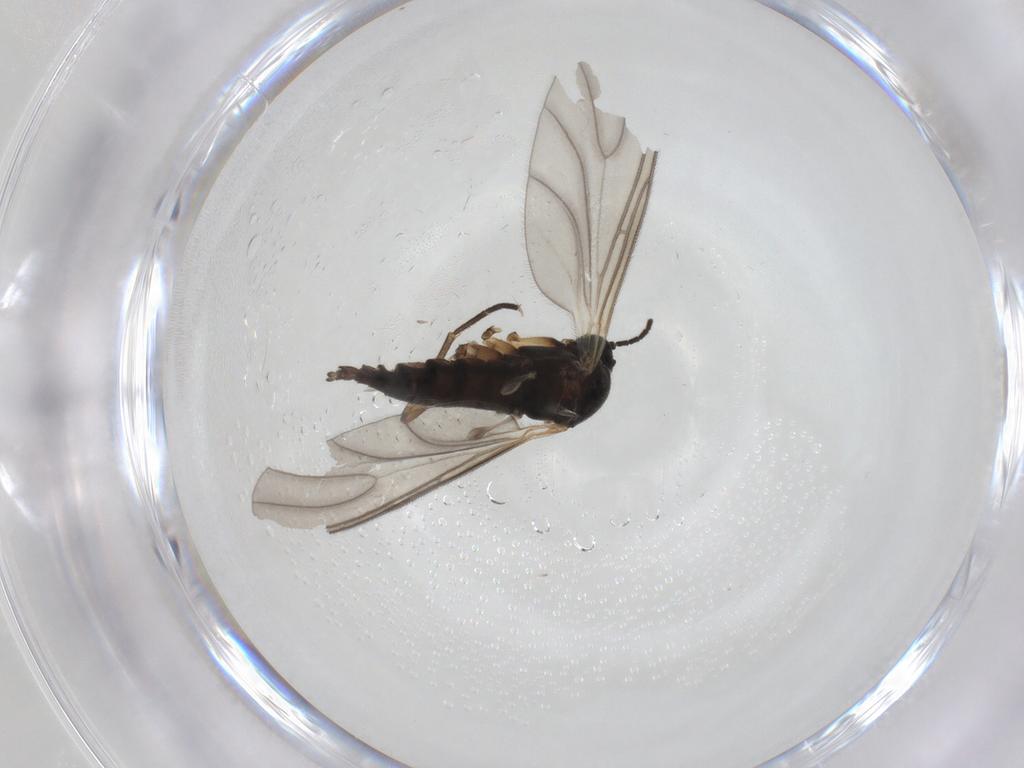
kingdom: Animalia
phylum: Arthropoda
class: Insecta
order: Diptera
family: Sciaridae
